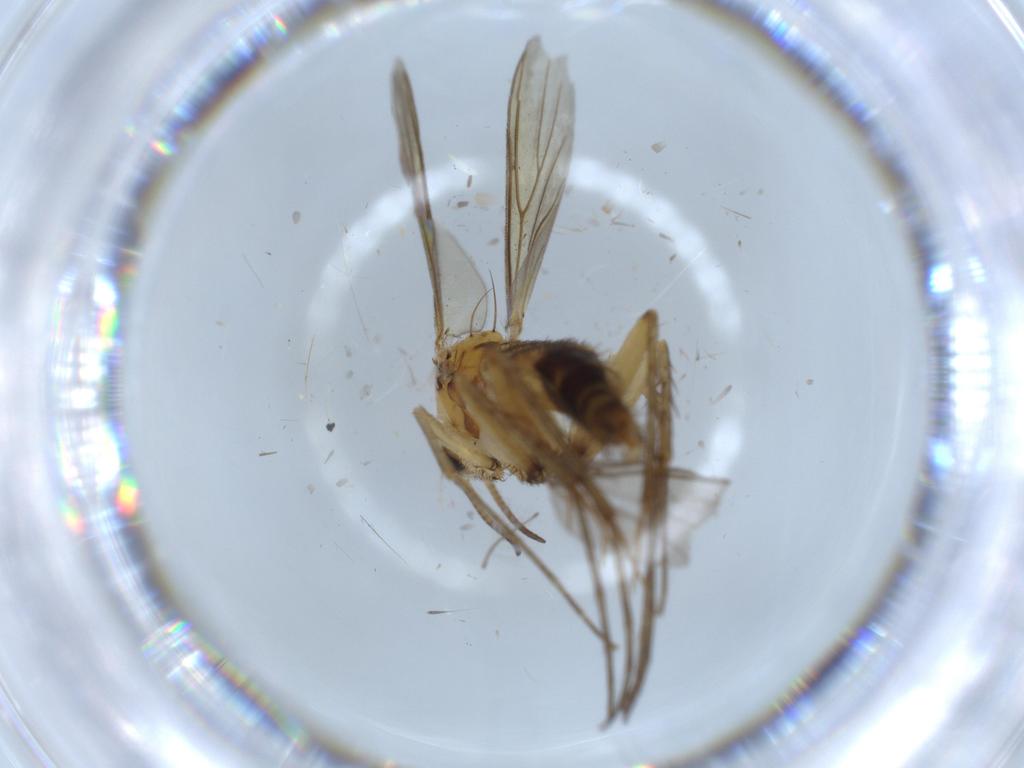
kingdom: Animalia
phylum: Arthropoda
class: Insecta
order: Diptera
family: Mycetophilidae
